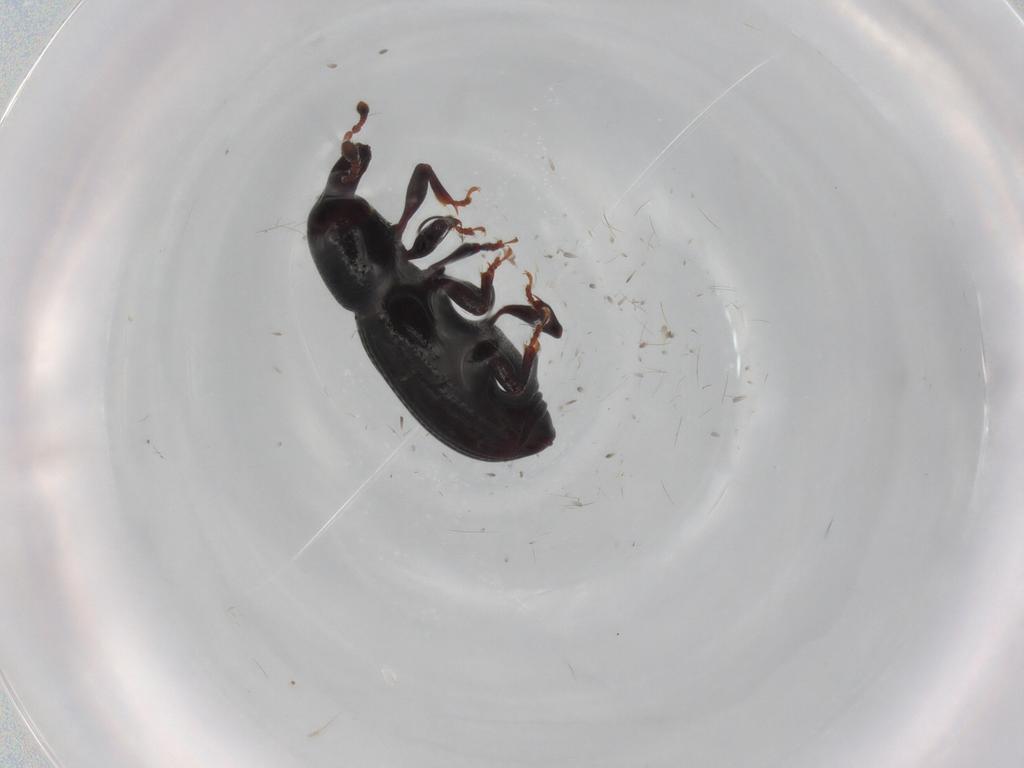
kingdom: Animalia
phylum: Arthropoda
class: Insecta
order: Coleoptera
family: Curculionidae
